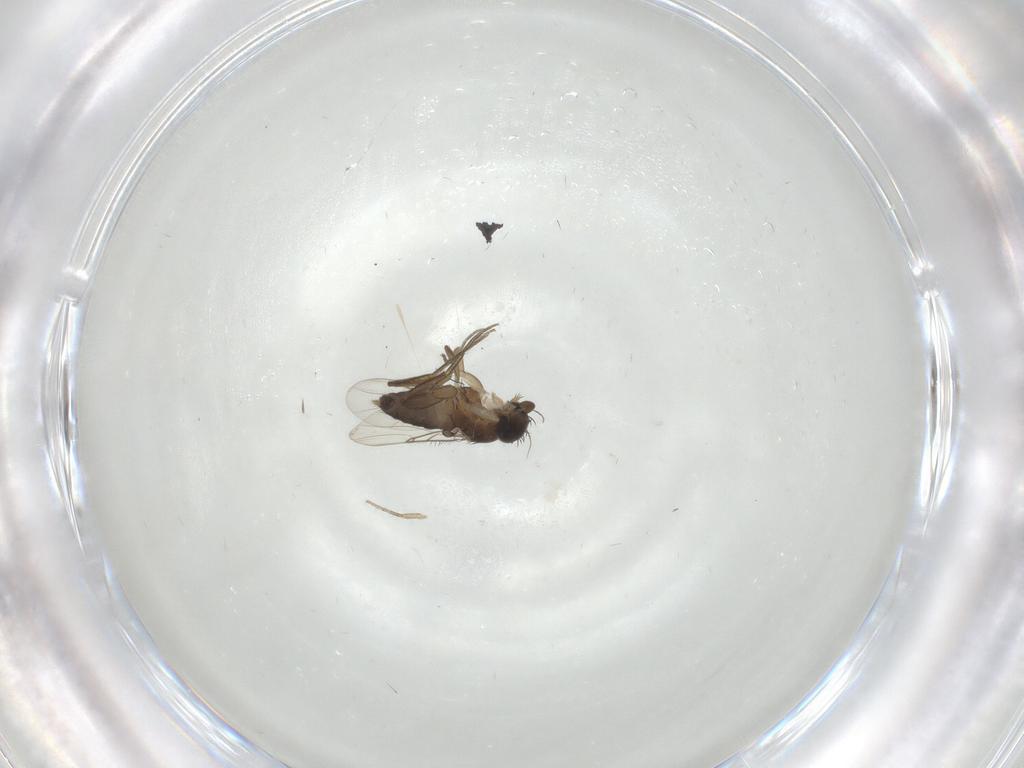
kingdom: Animalia
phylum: Arthropoda
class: Insecta
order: Diptera
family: Phoridae
